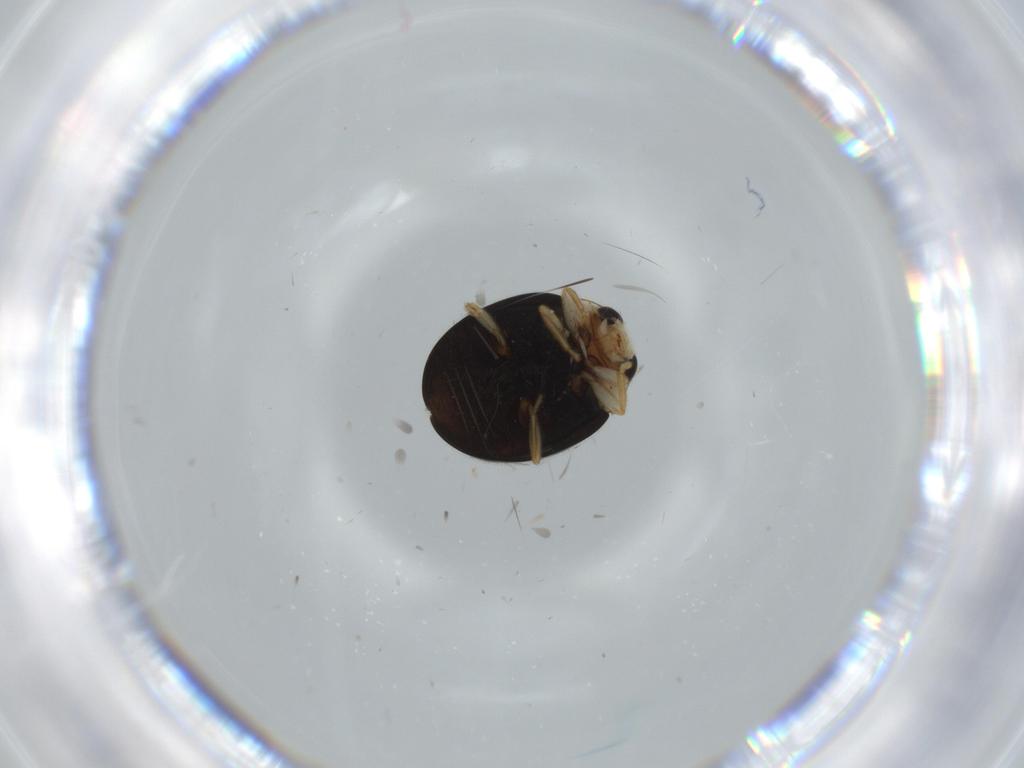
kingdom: Animalia
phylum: Arthropoda
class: Insecta
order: Coleoptera
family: Coccinellidae
